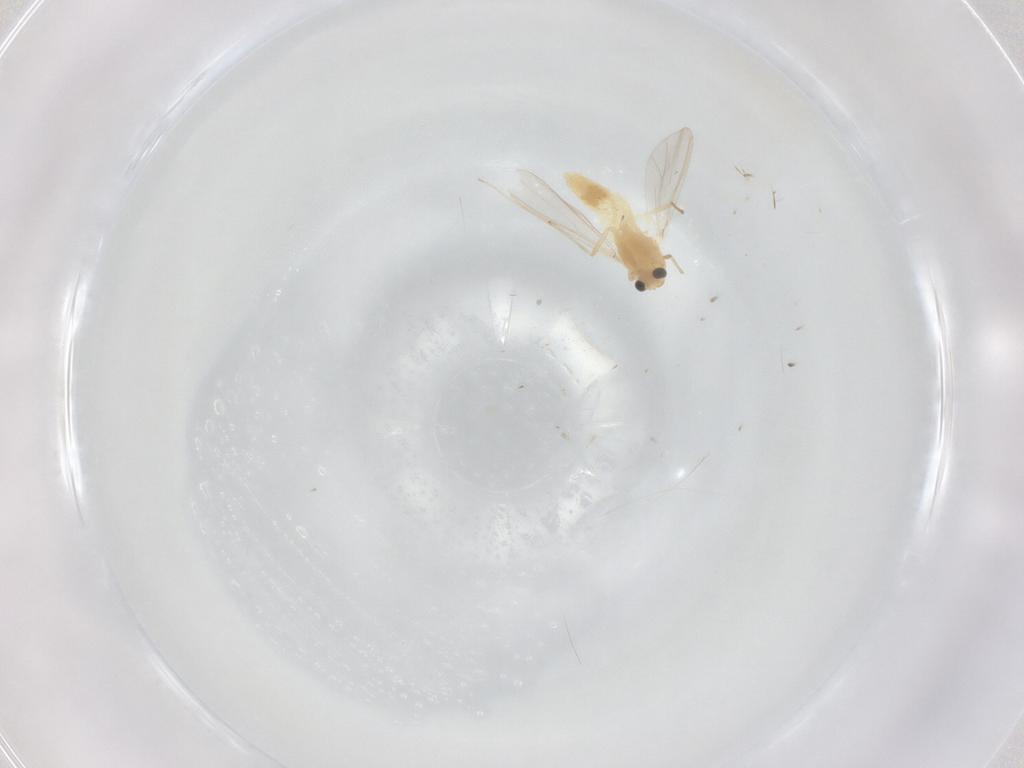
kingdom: Animalia
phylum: Arthropoda
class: Insecta
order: Diptera
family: Chironomidae
